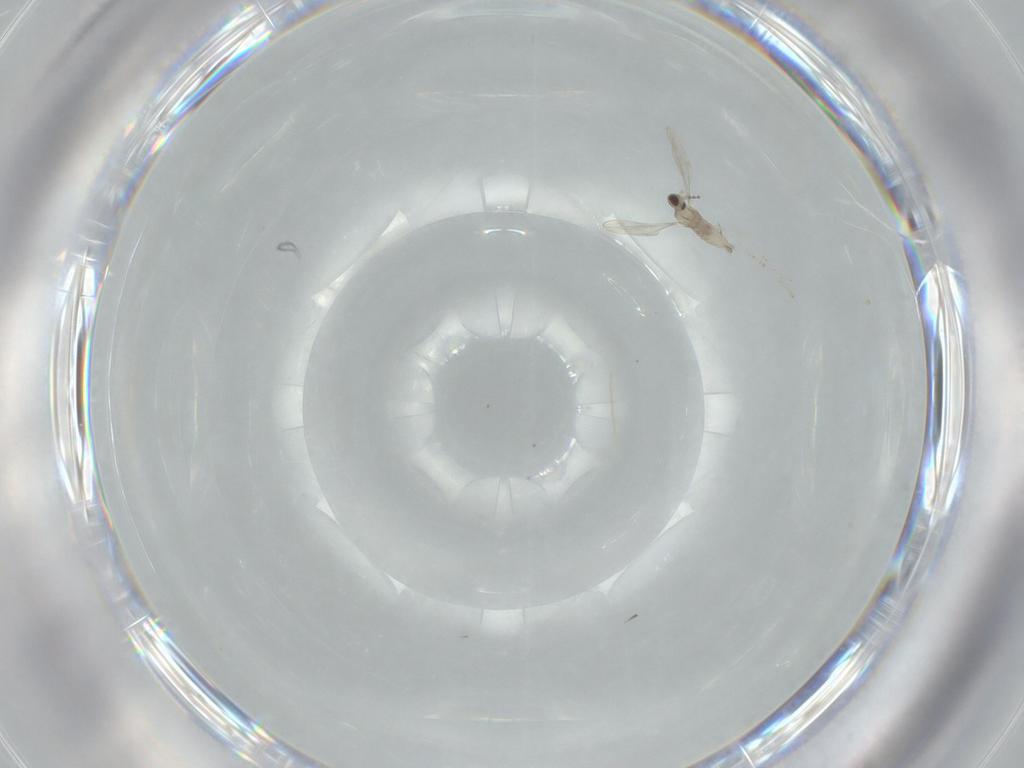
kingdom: Animalia
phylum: Arthropoda
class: Insecta
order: Diptera
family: Cecidomyiidae
